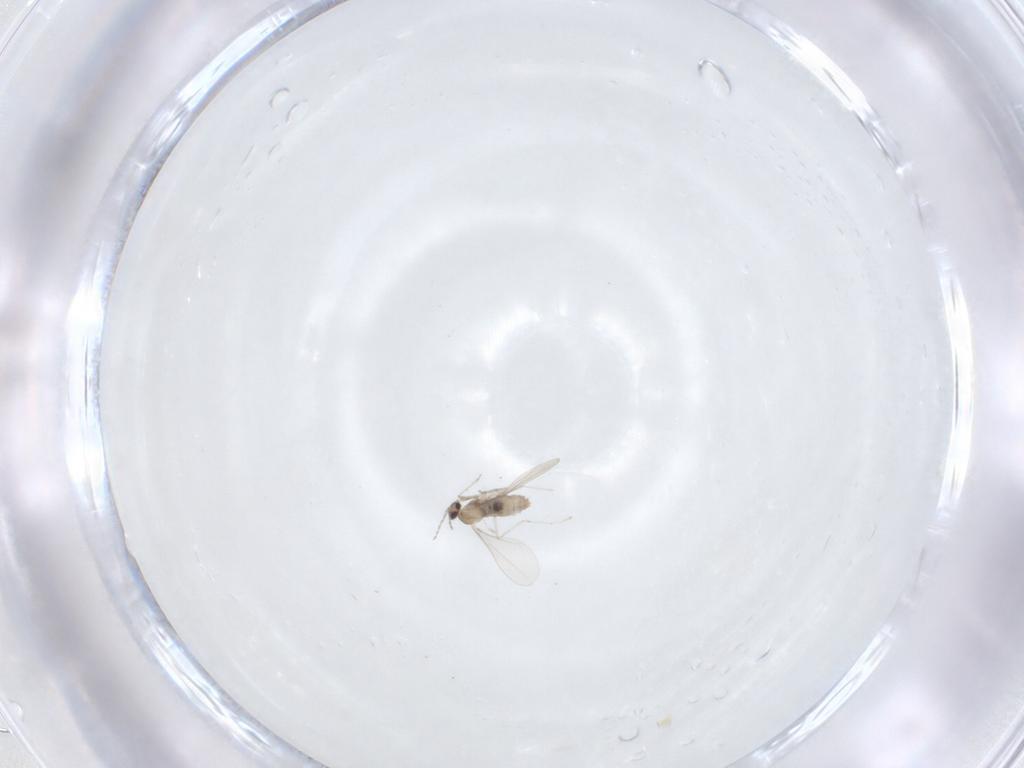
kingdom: Animalia
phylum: Arthropoda
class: Insecta
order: Diptera
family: Cecidomyiidae
